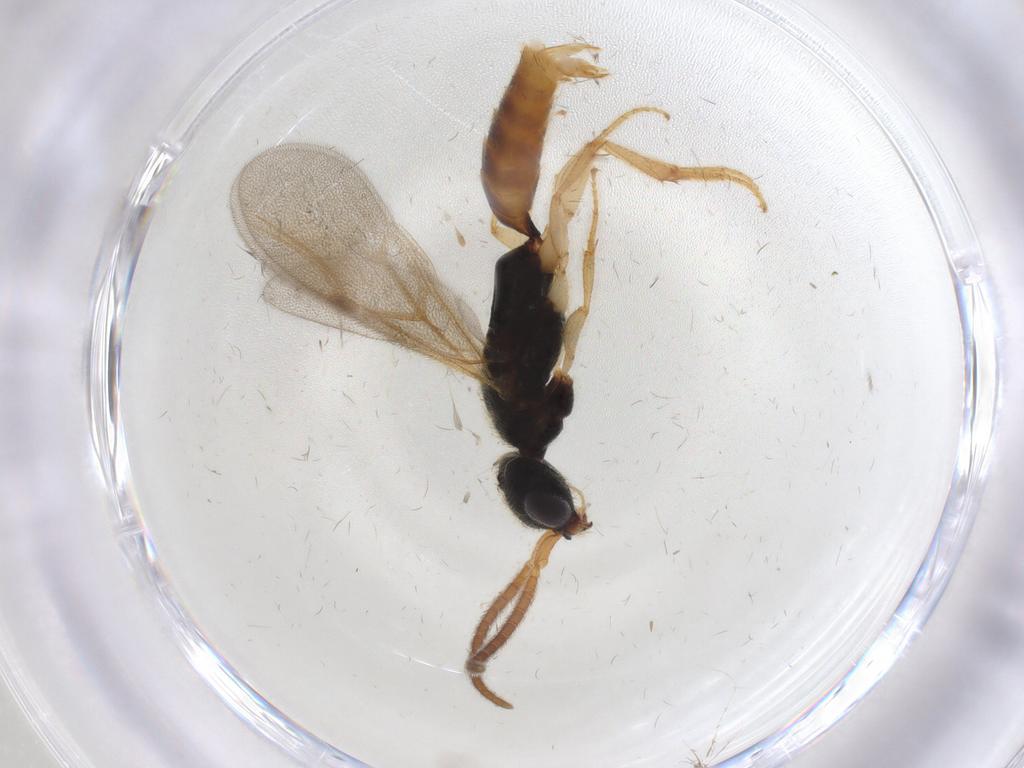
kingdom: Animalia
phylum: Arthropoda
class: Insecta
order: Hymenoptera
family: Bethylidae
